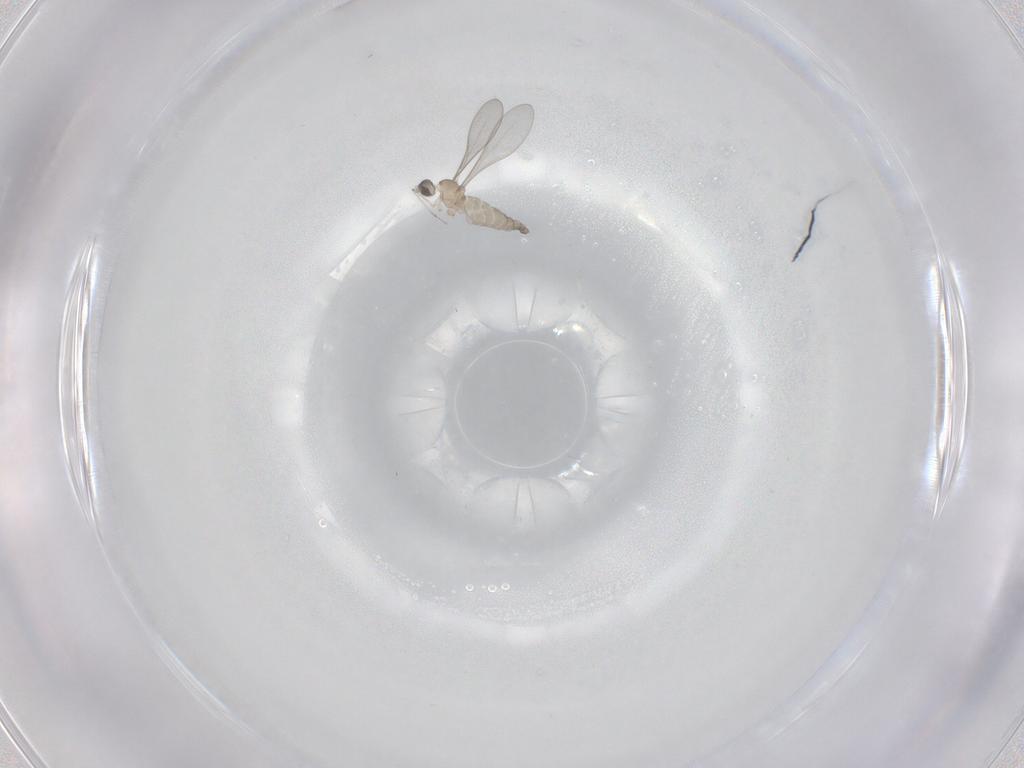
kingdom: Animalia
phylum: Arthropoda
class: Insecta
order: Diptera
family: Cecidomyiidae
